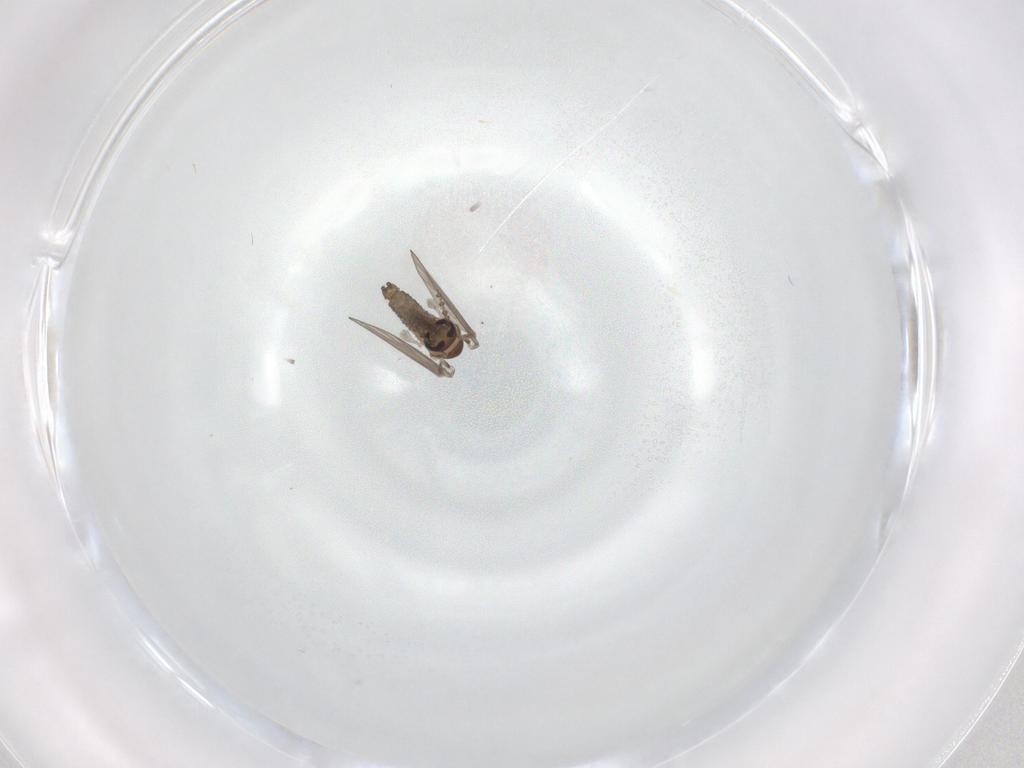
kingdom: Animalia
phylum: Arthropoda
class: Insecta
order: Diptera
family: Psychodidae
